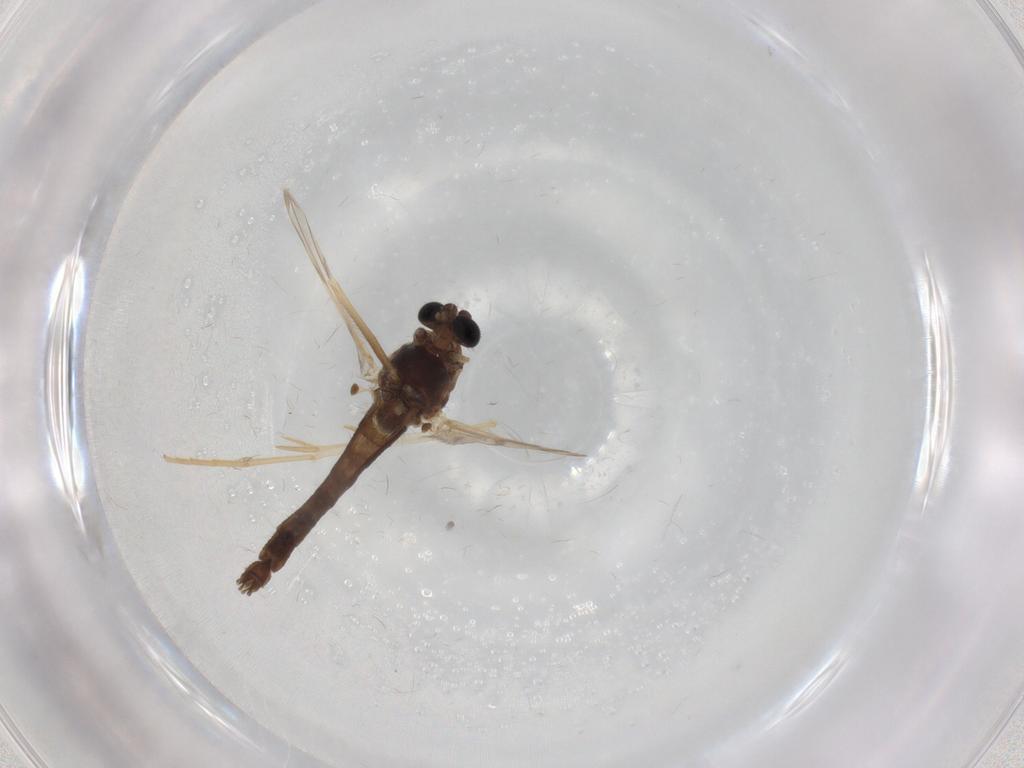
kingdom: Animalia
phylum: Arthropoda
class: Insecta
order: Diptera
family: Chironomidae
